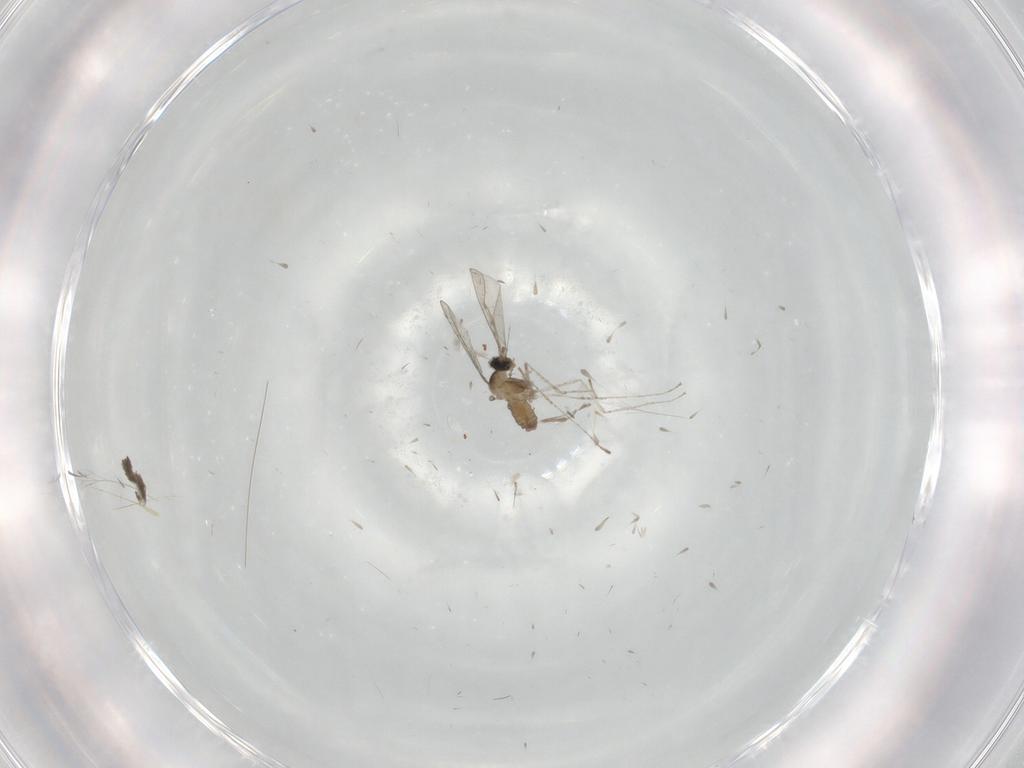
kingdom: Animalia
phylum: Arthropoda
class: Insecta
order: Diptera
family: Cecidomyiidae
